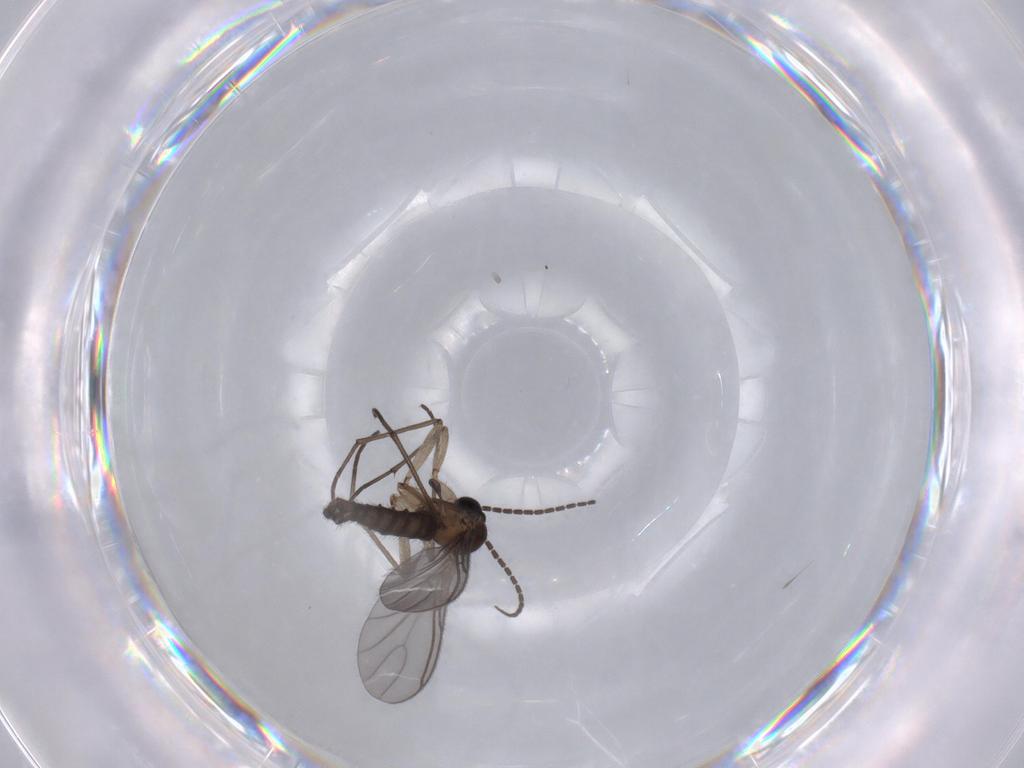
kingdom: Animalia
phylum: Arthropoda
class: Insecta
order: Diptera
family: Sciaridae
